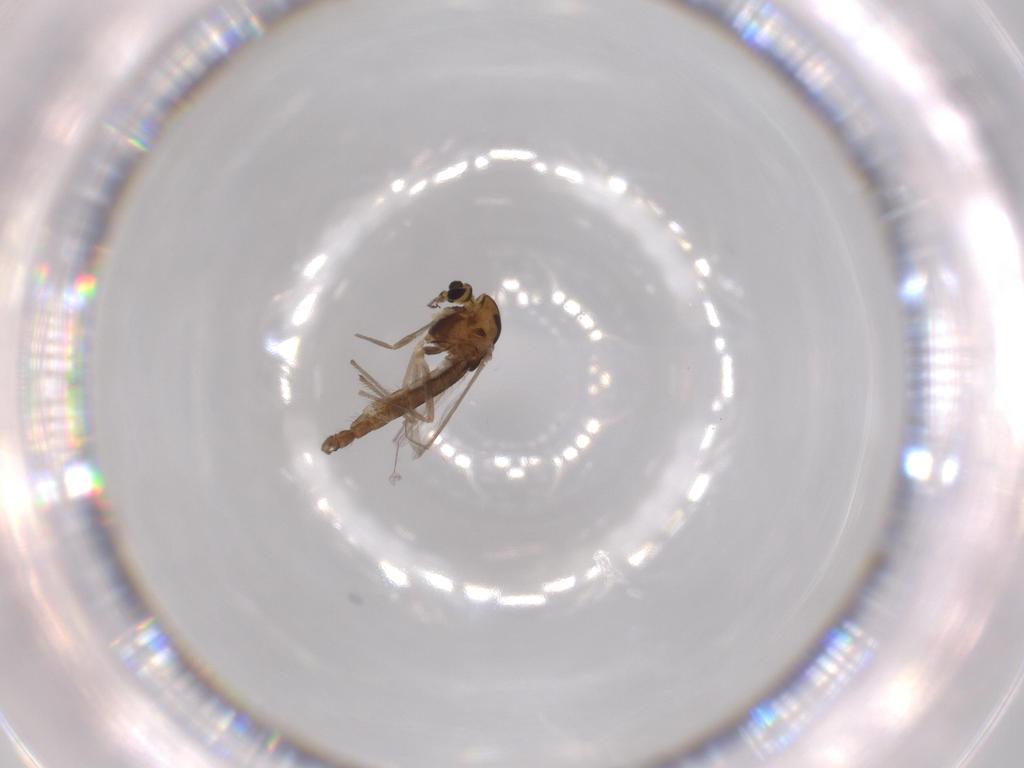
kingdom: Animalia
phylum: Arthropoda
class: Insecta
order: Diptera
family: Chironomidae
